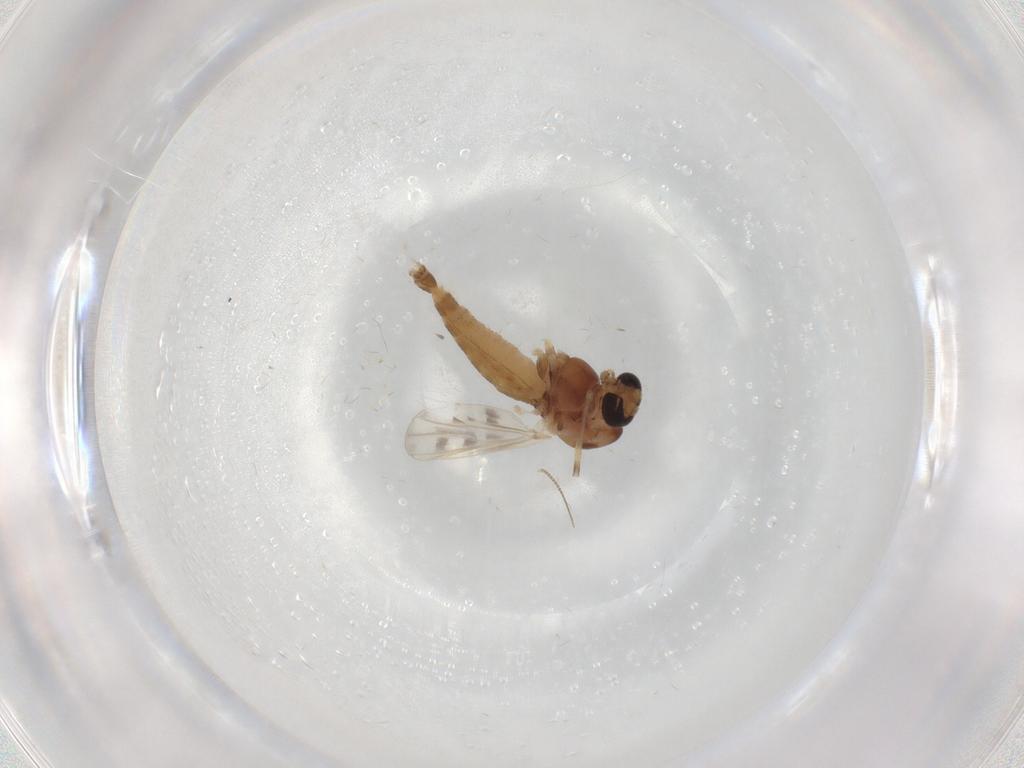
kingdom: Animalia
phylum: Arthropoda
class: Insecta
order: Diptera
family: Chironomidae
